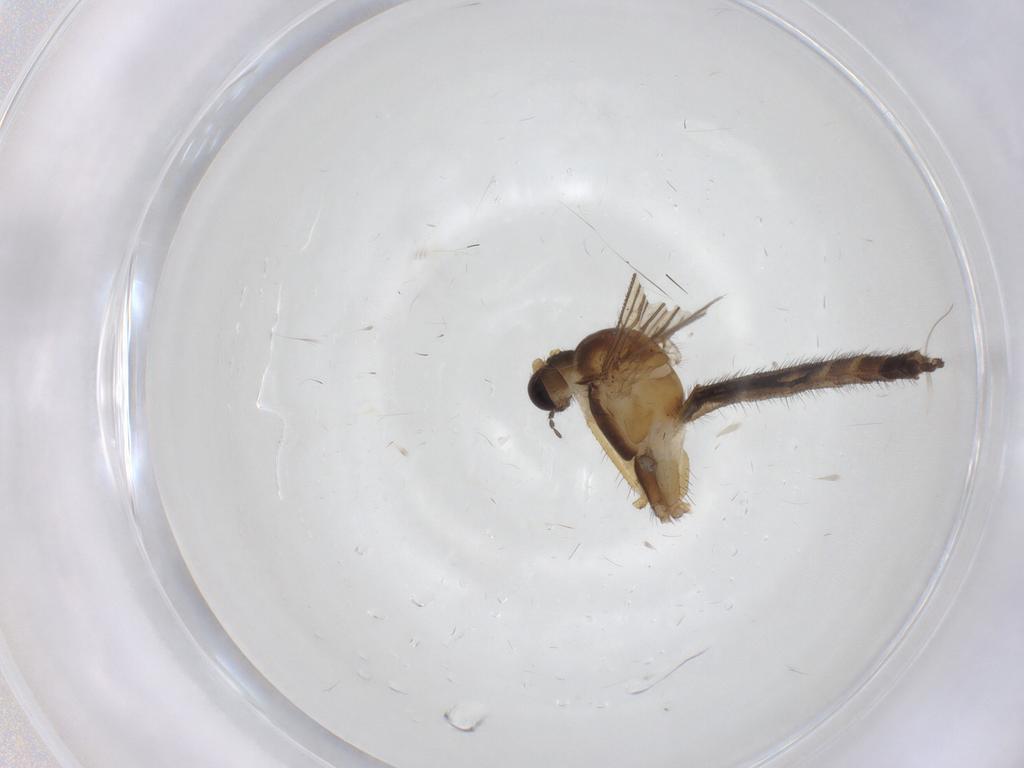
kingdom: Animalia
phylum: Arthropoda
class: Insecta
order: Diptera
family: Keroplatidae
